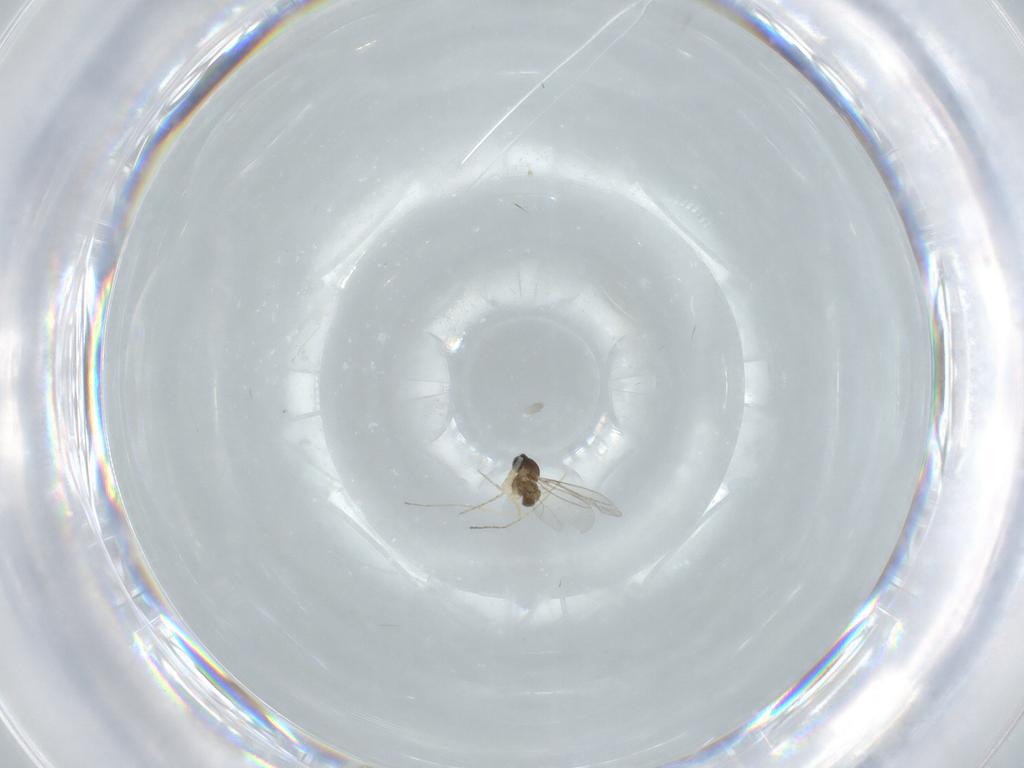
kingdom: Animalia
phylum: Arthropoda
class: Insecta
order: Diptera
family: Cecidomyiidae
